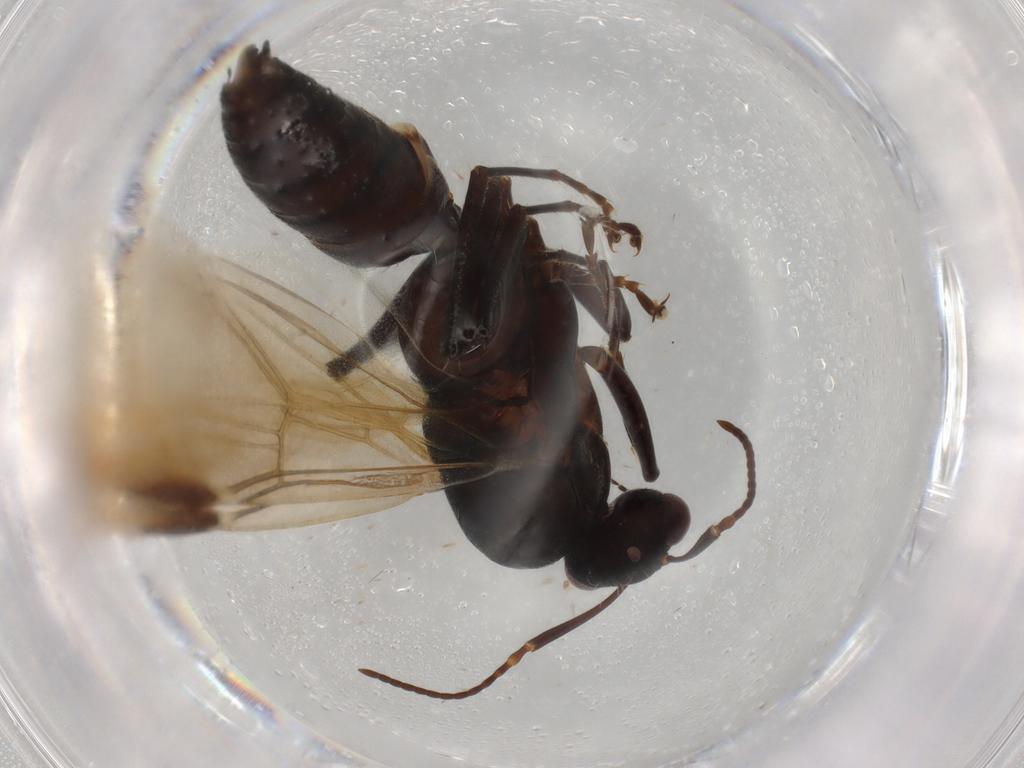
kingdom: Animalia
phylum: Arthropoda
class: Insecta
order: Hymenoptera
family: Formicidae
